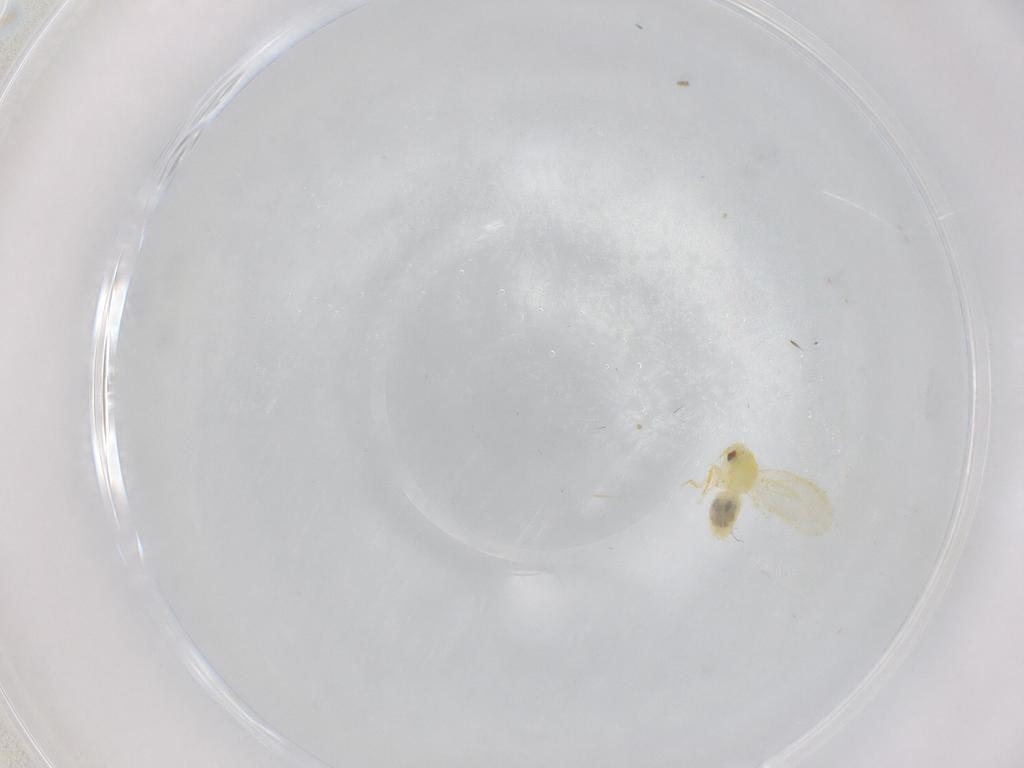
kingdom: Animalia
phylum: Arthropoda
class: Insecta
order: Hemiptera
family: Aleyrodidae
